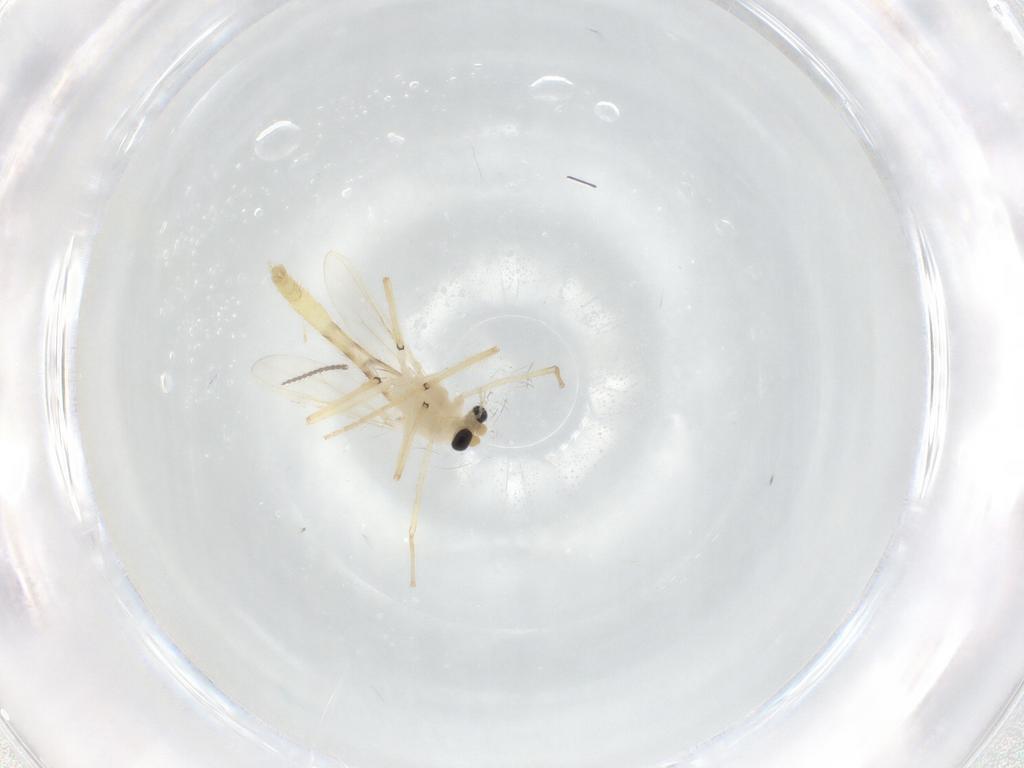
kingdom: Animalia
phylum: Arthropoda
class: Insecta
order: Diptera
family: Chironomidae
